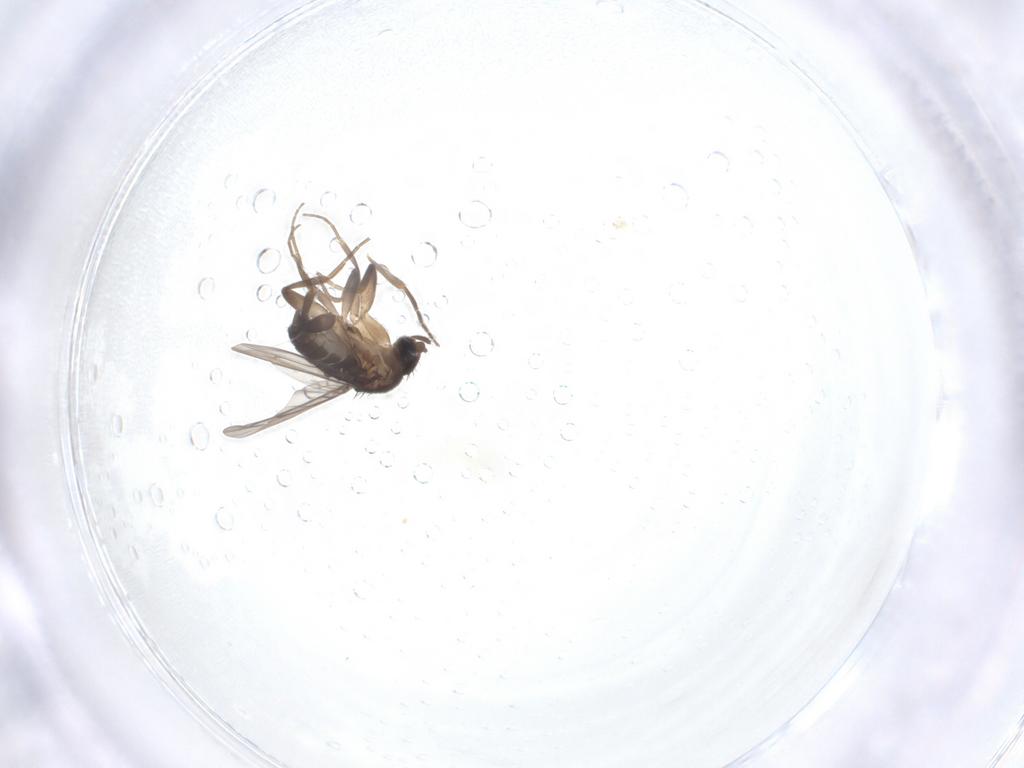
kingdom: Animalia
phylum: Arthropoda
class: Insecta
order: Diptera
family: Phoridae
